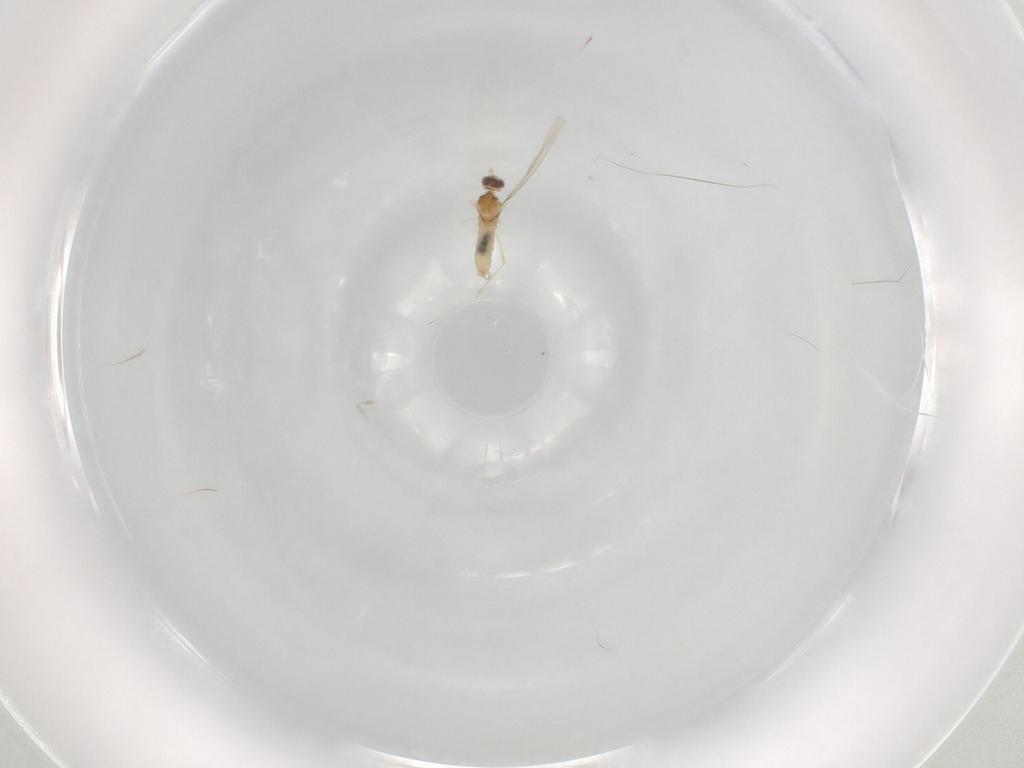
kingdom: Animalia
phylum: Arthropoda
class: Insecta
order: Diptera
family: Cecidomyiidae
